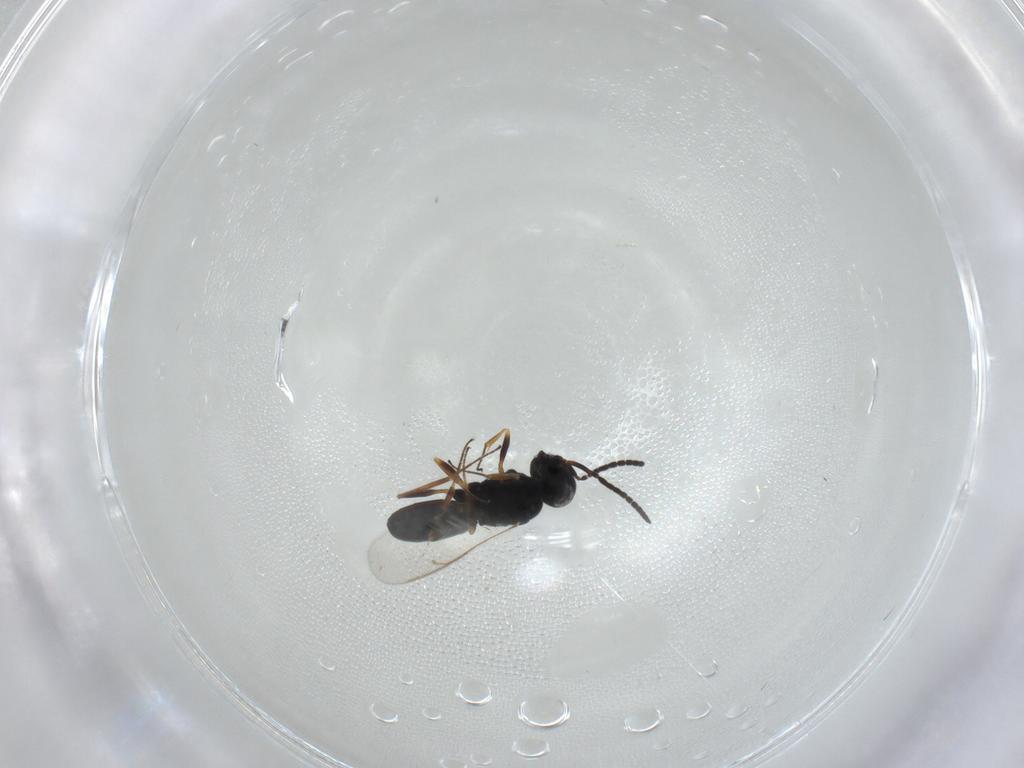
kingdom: Animalia
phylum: Arthropoda
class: Insecta
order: Hymenoptera
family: Scelionidae
